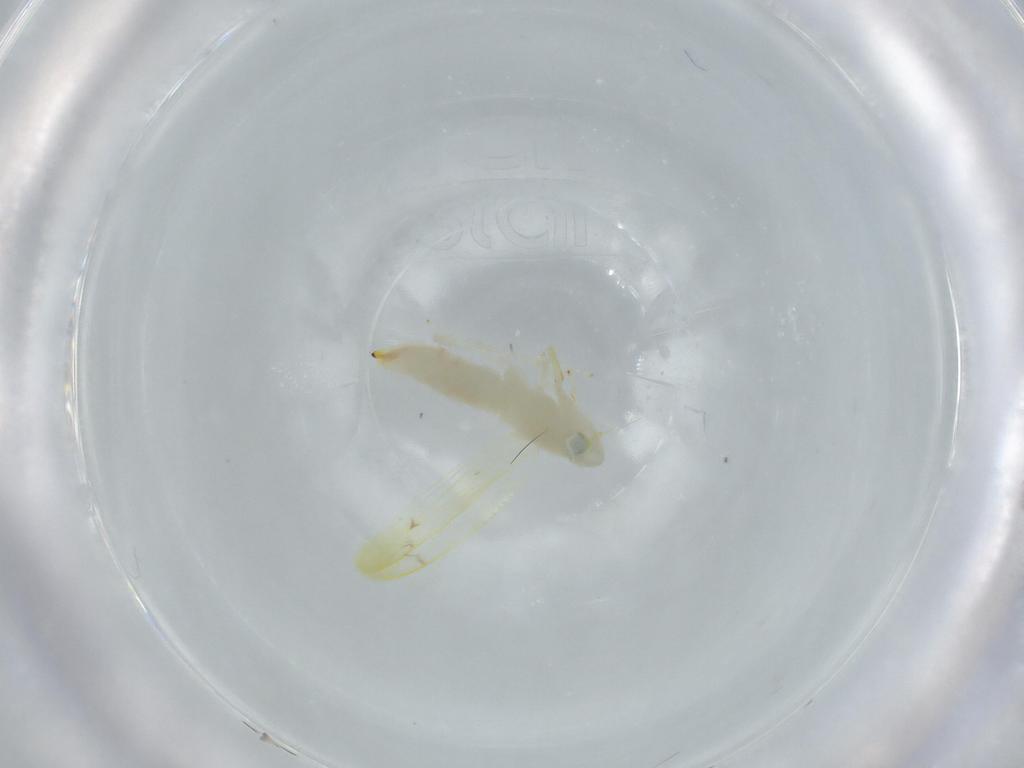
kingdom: Animalia
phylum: Arthropoda
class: Insecta
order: Hemiptera
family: Cicadellidae
